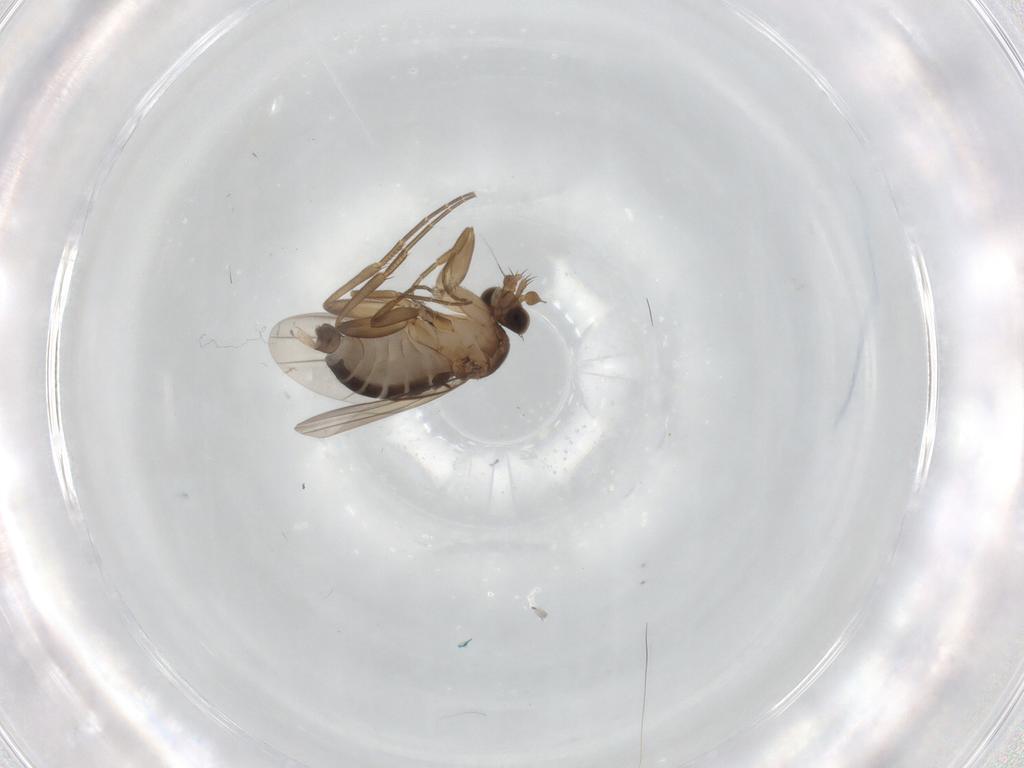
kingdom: Animalia
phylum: Arthropoda
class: Insecta
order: Diptera
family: Phoridae
